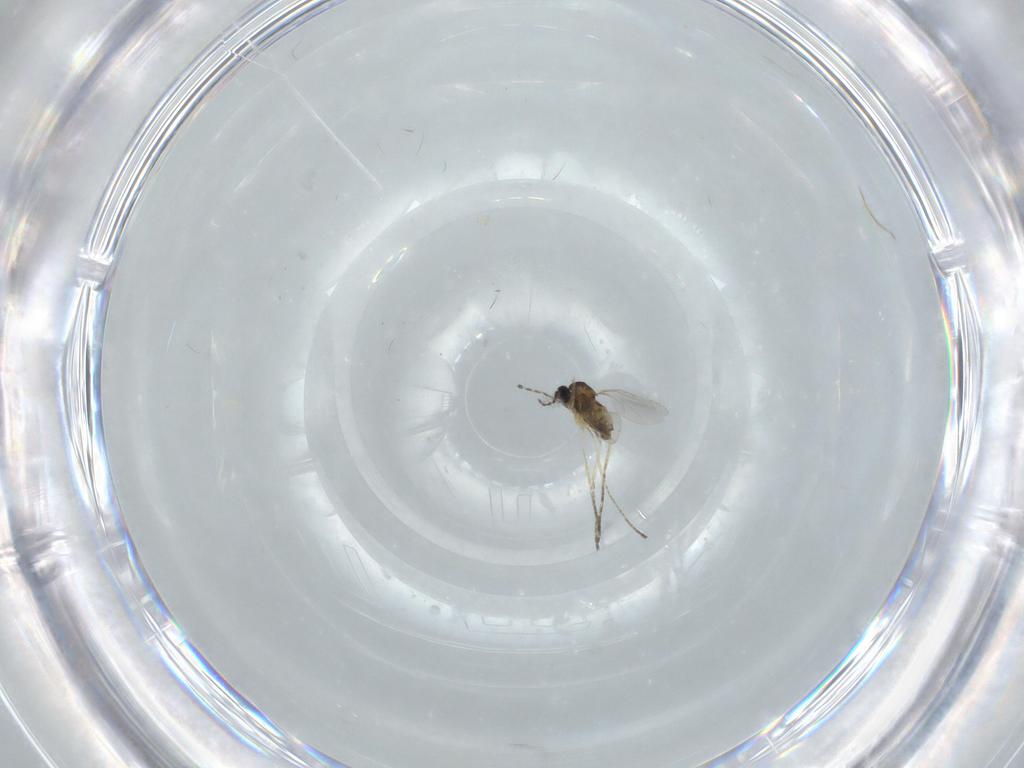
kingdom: Animalia
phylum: Arthropoda
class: Insecta
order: Diptera
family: Cecidomyiidae
